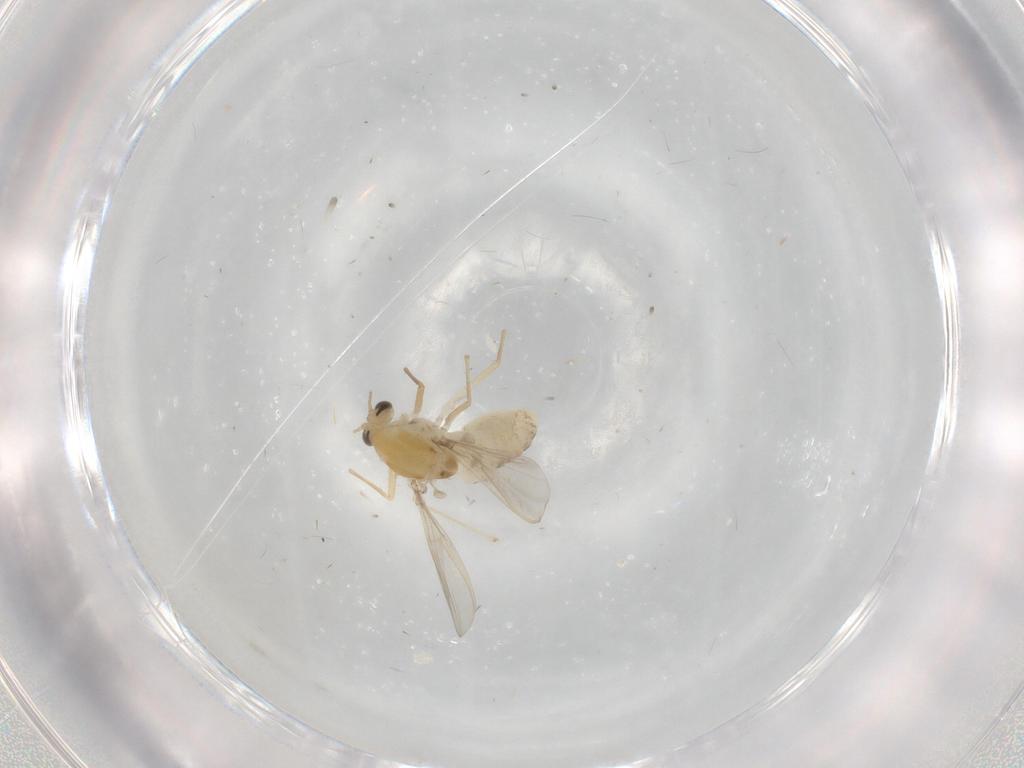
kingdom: Animalia
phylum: Arthropoda
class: Insecta
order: Diptera
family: Chironomidae
